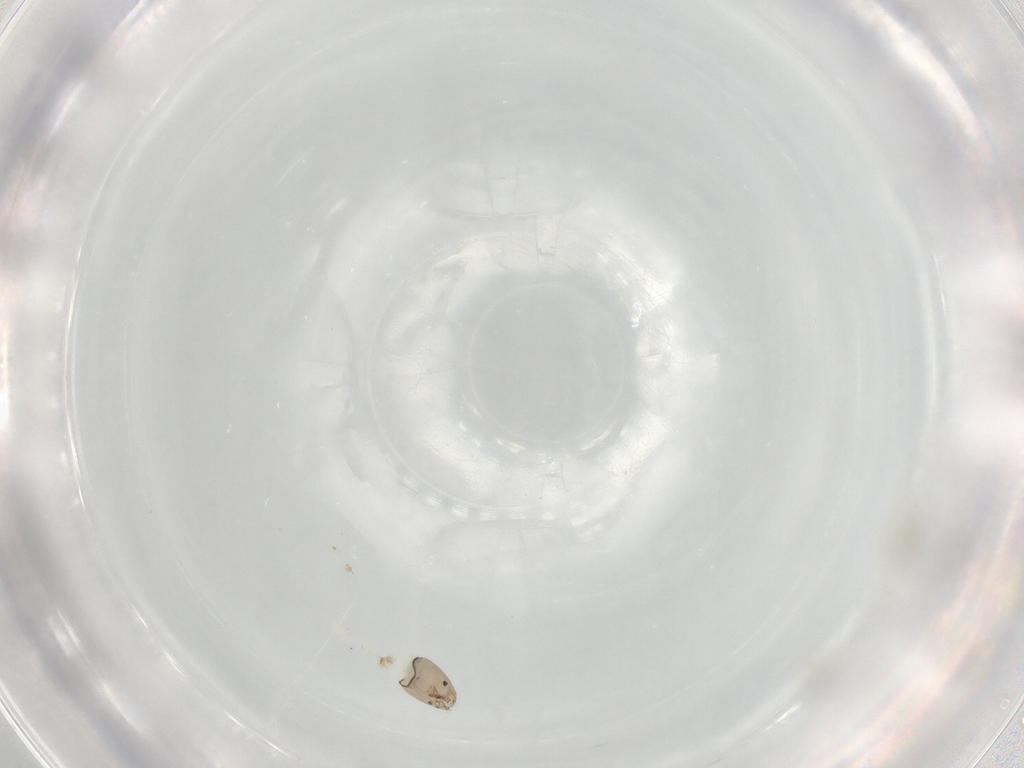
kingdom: Animalia
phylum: Arthropoda
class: Insecta
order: Diptera
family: Chironomidae
